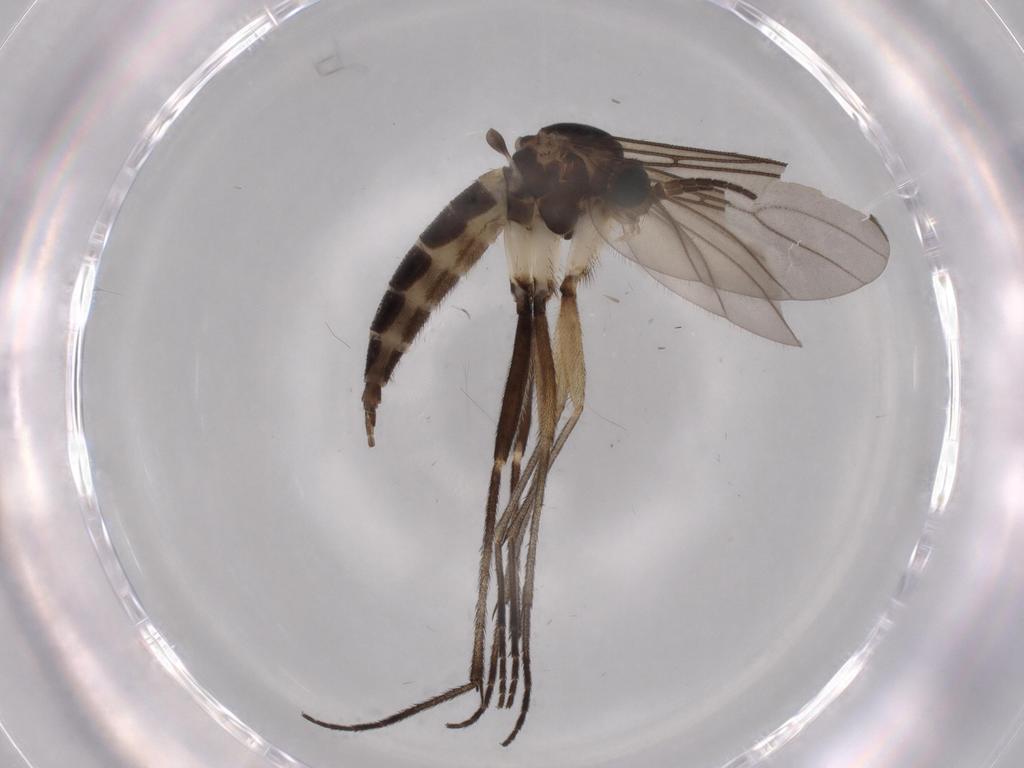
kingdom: Animalia
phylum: Arthropoda
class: Insecta
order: Diptera
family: Sciaridae
